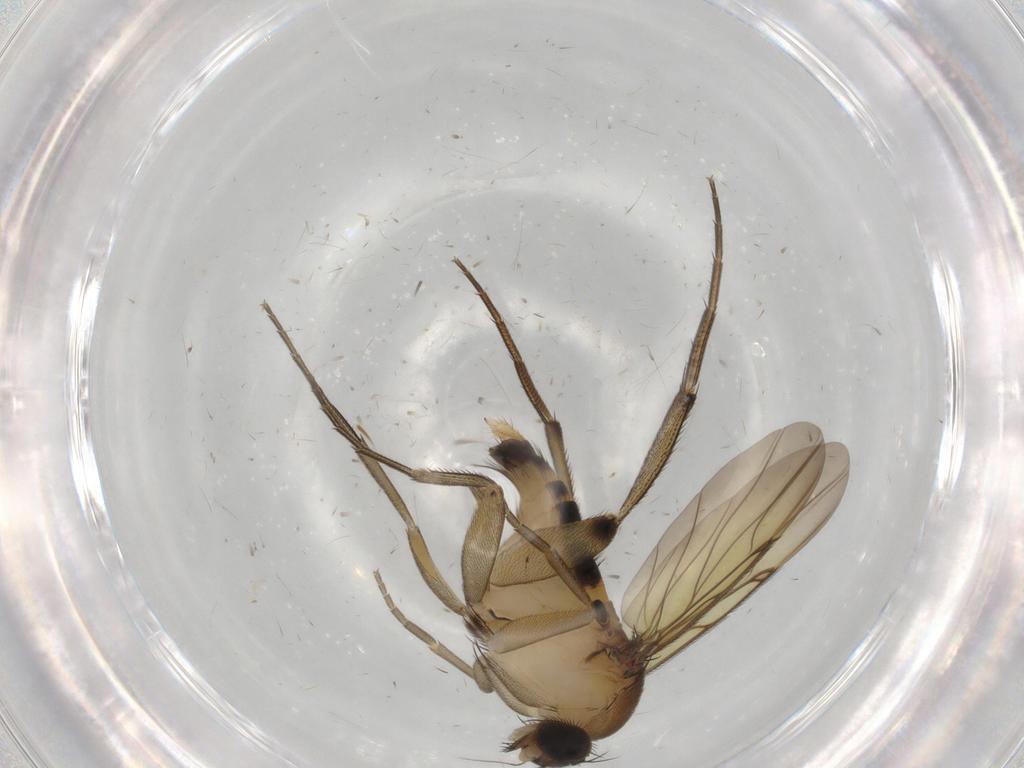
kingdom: Animalia
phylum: Arthropoda
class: Insecta
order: Diptera
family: Phoridae
